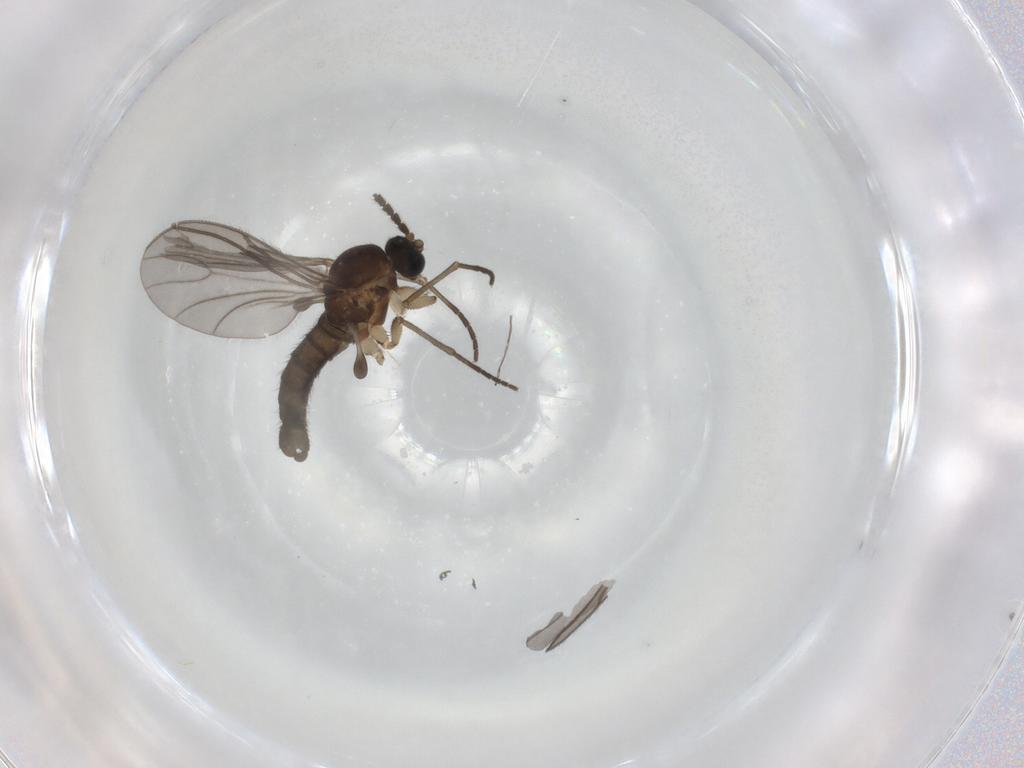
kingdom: Animalia
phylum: Arthropoda
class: Insecta
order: Diptera
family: Sciaridae
